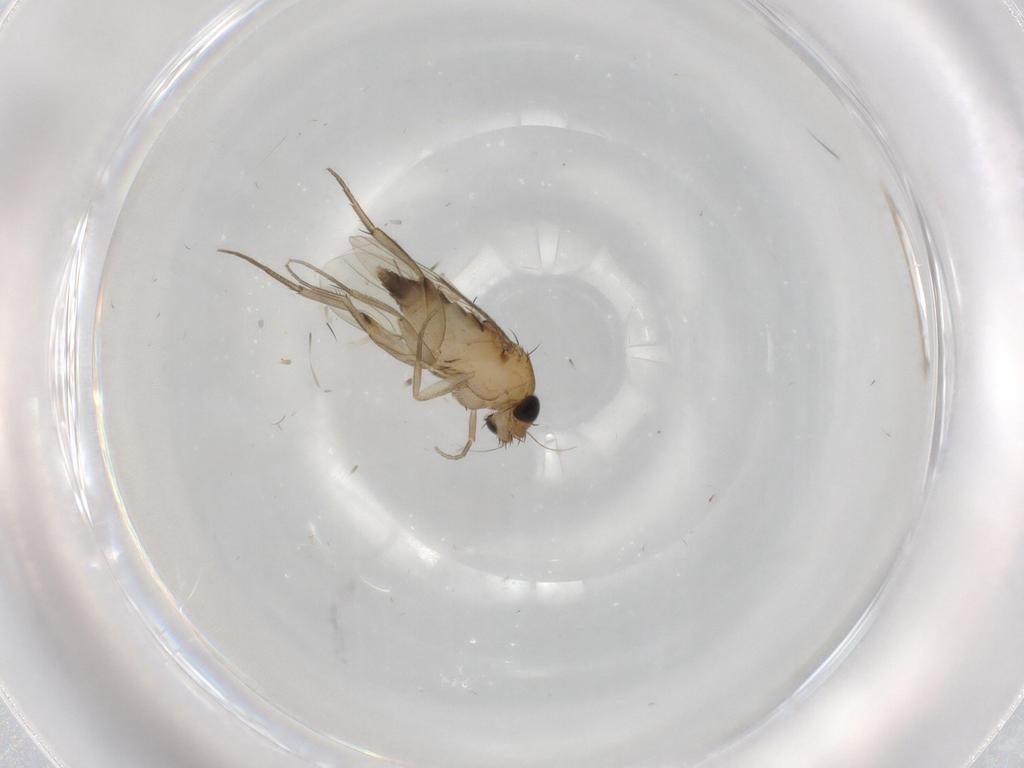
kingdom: Animalia
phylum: Arthropoda
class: Insecta
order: Diptera
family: Phoridae
